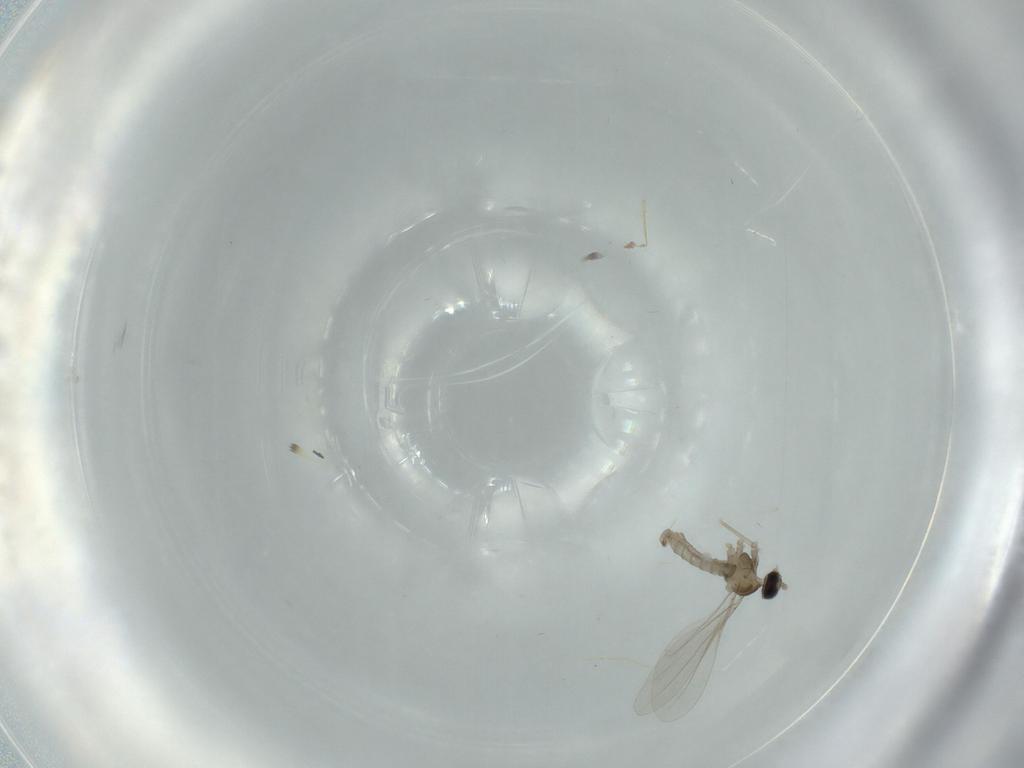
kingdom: Animalia
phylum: Arthropoda
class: Insecta
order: Diptera
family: Cecidomyiidae
